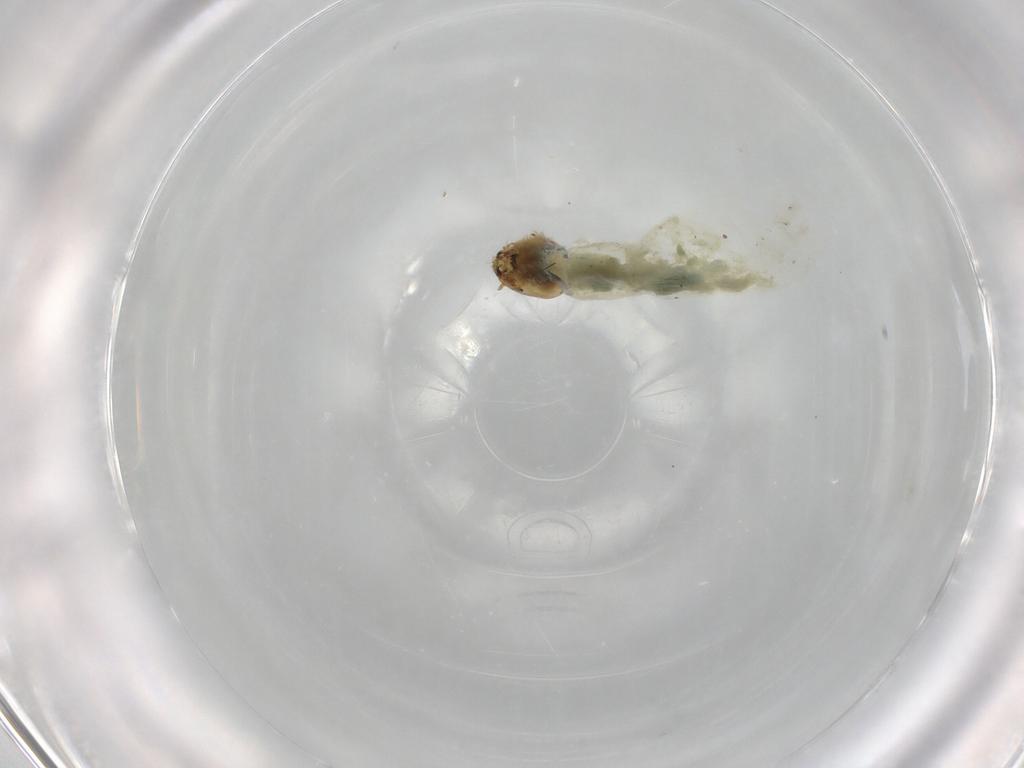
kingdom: Animalia
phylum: Arthropoda
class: Insecta
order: Diptera
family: Chironomidae
